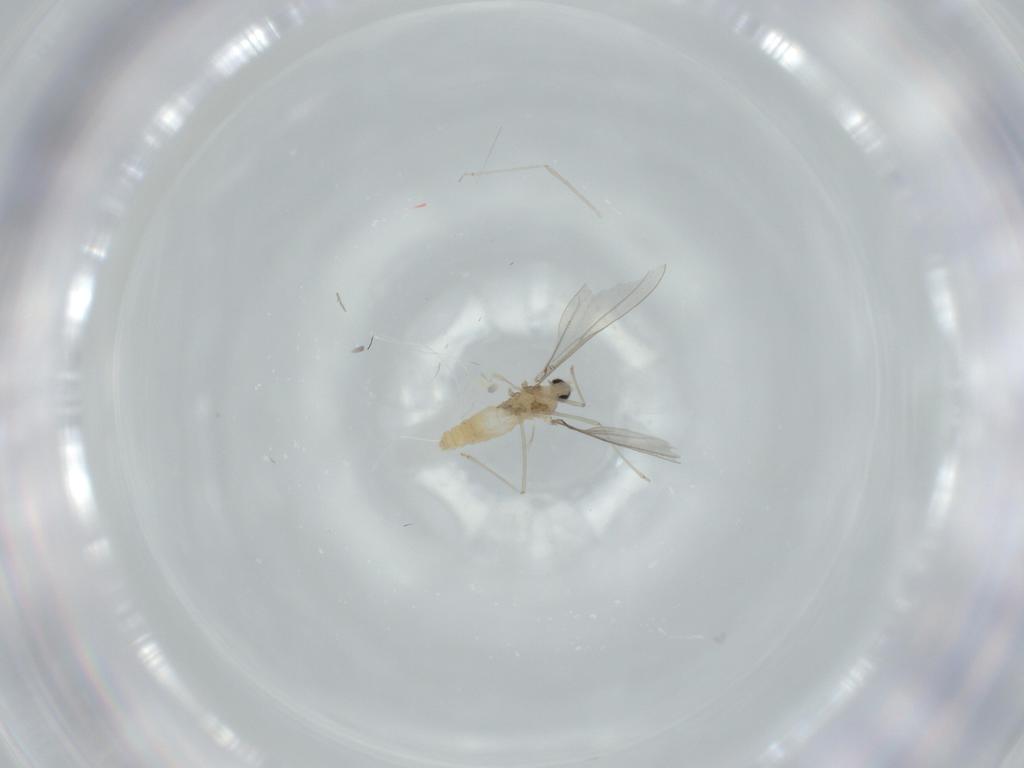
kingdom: Animalia
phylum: Arthropoda
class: Insecta
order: Diptera
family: Cecidomyiidae
